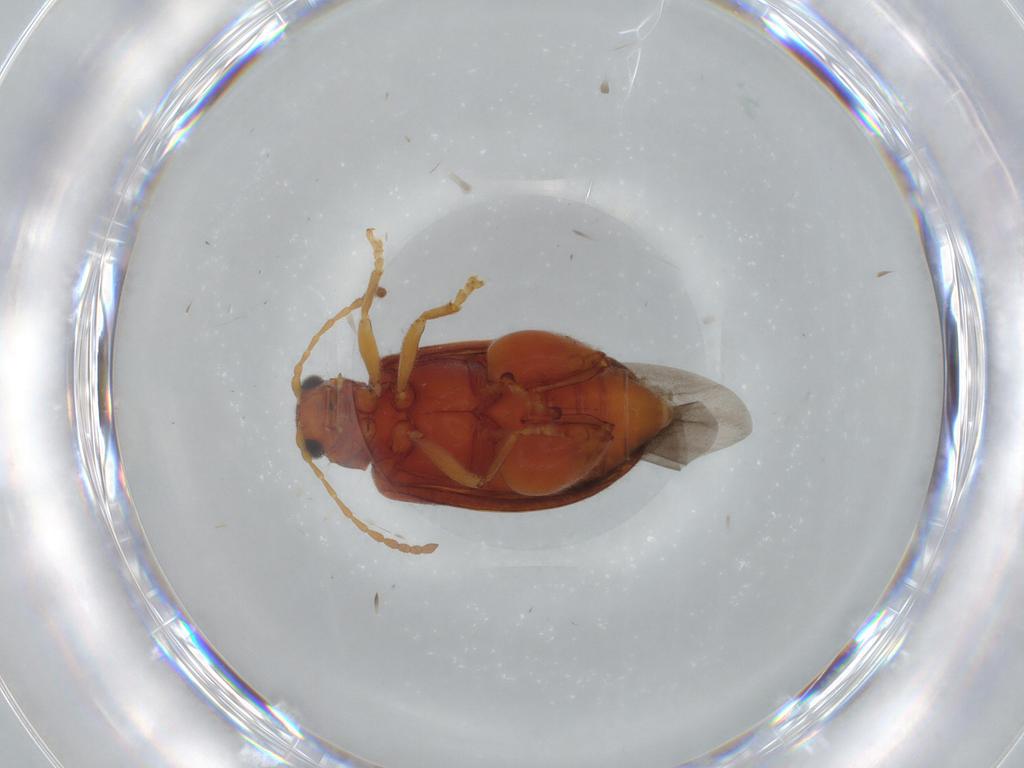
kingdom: Animalia
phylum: Arthropoda
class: Insecta
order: Coleoptera
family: Chrysomelidae
